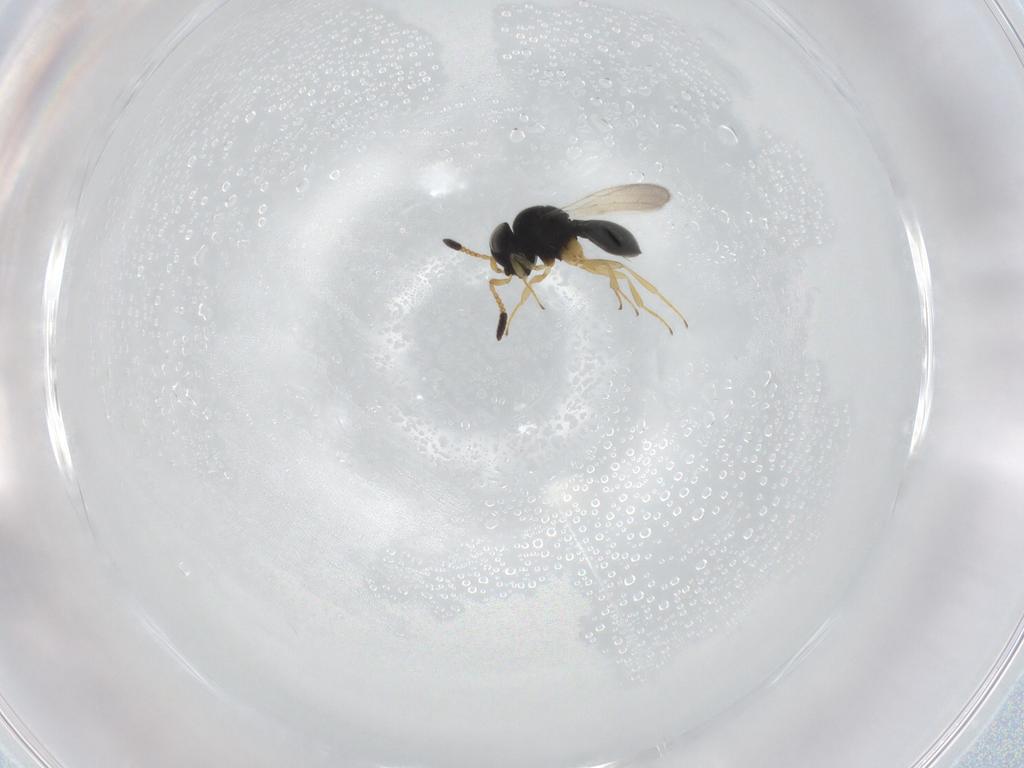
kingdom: Animalia
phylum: Arthropoda
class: Insecta
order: Hymenoptera
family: Scelionidae
